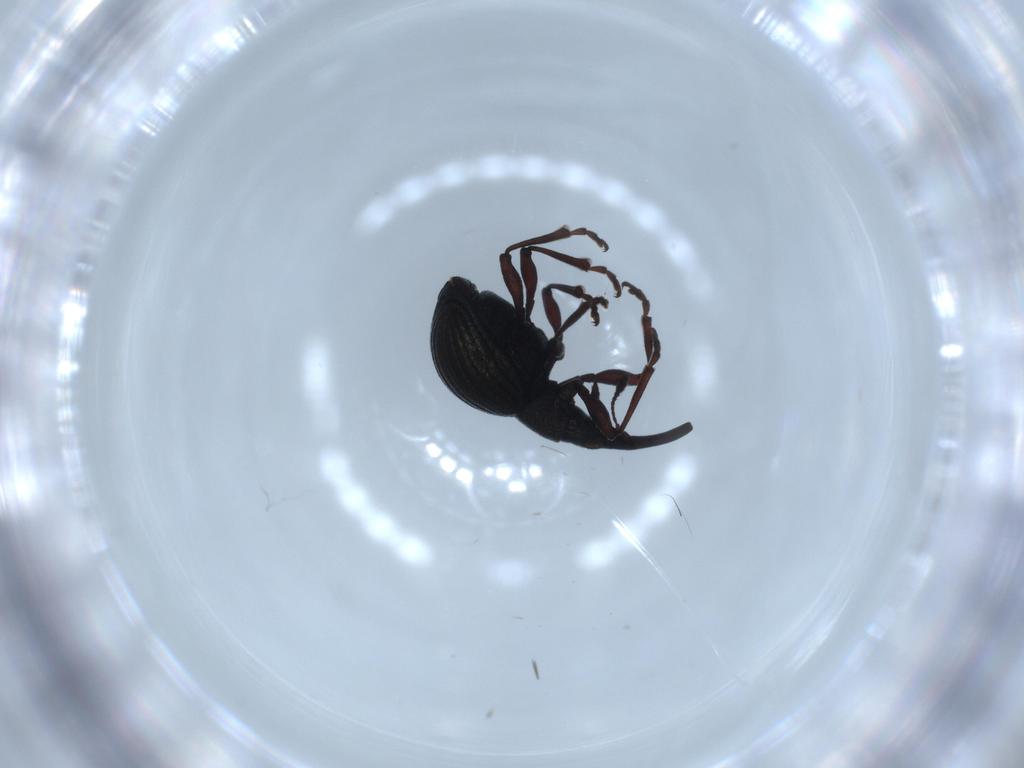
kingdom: Animalia
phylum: Arthropoda
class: Insecta
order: Coleoptera
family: Brentidae
